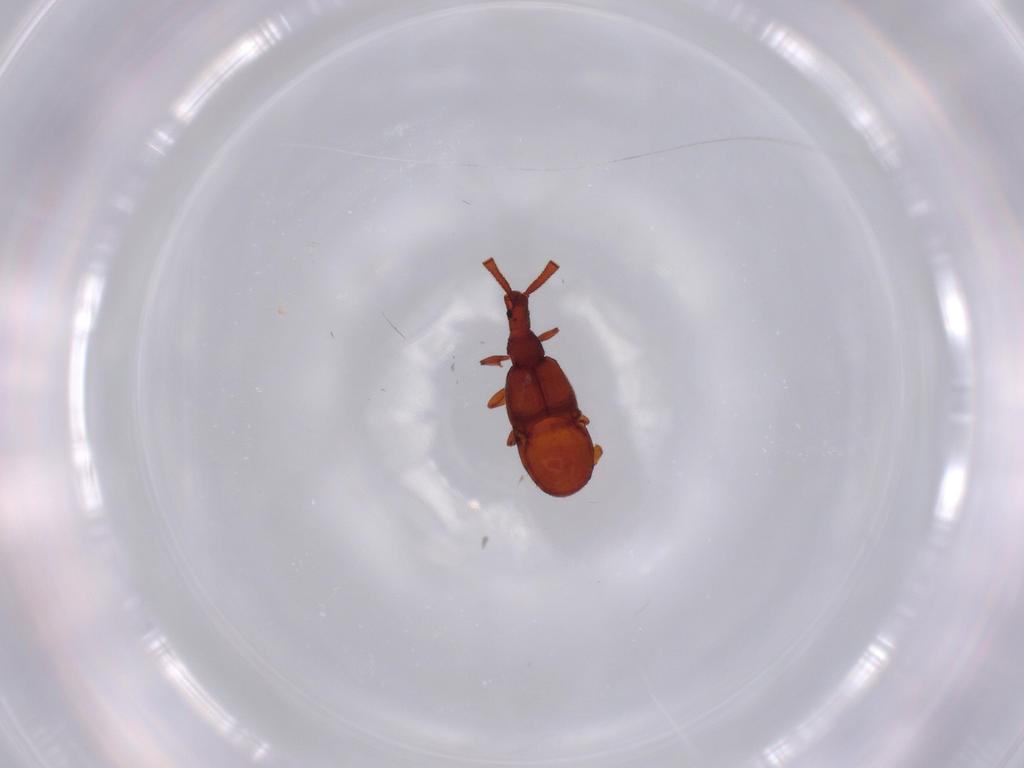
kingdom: Animalia
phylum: Arthropoda
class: Insecta
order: Coleoptera
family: Staphylinidae
